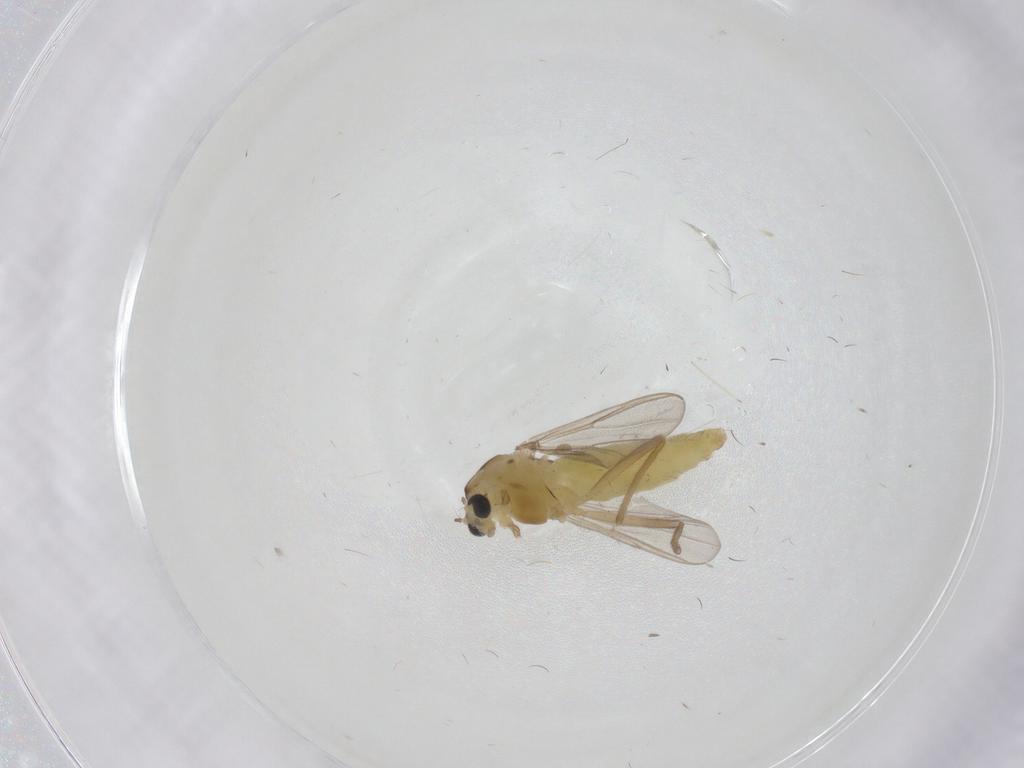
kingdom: Animalia
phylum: Arthropoda
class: Insecta
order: Diptera
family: Chironomidae
